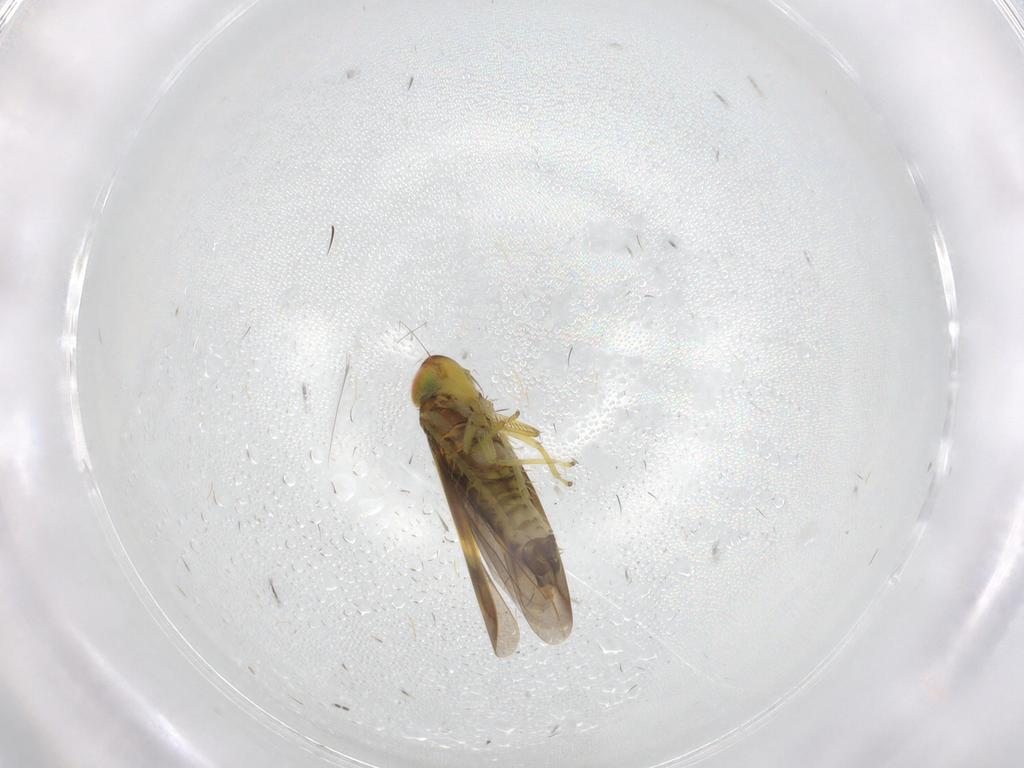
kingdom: Animalia
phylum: Arthropoda
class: Insecta
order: Hemiptera
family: Cicadellidae
